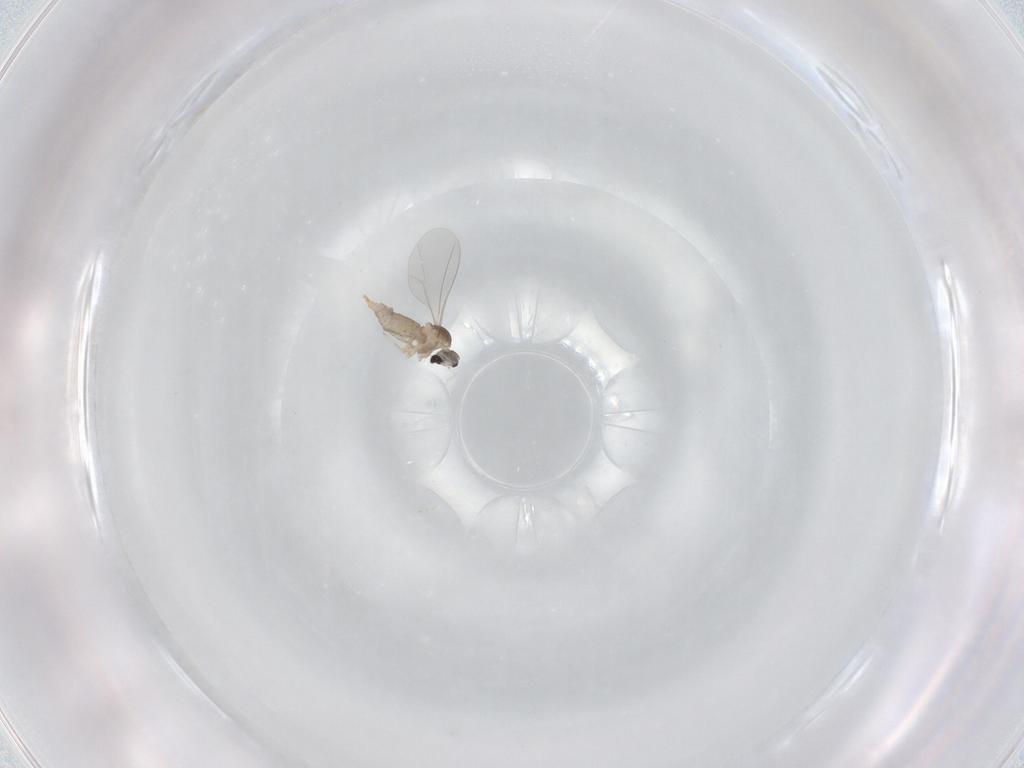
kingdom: Animalia
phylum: Arthropoda
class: Insecta
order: Diptera
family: Cecidomyiidae
